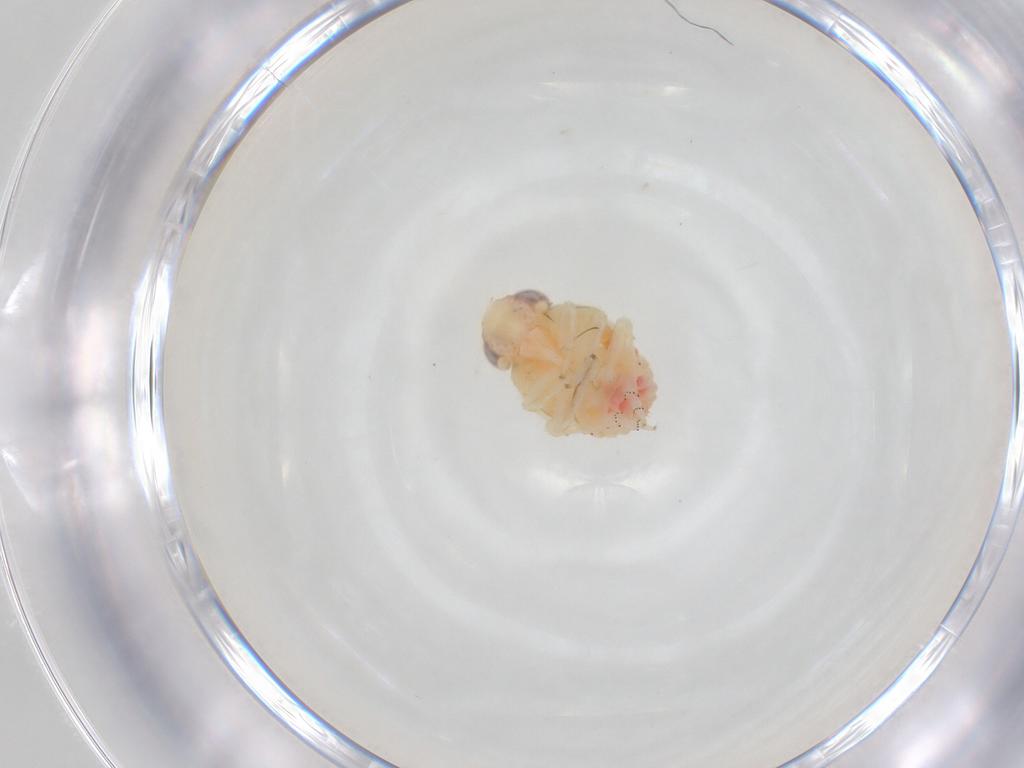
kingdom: Animalia
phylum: Arthropoda
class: Insecta
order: Hemiptera
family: Issidae
